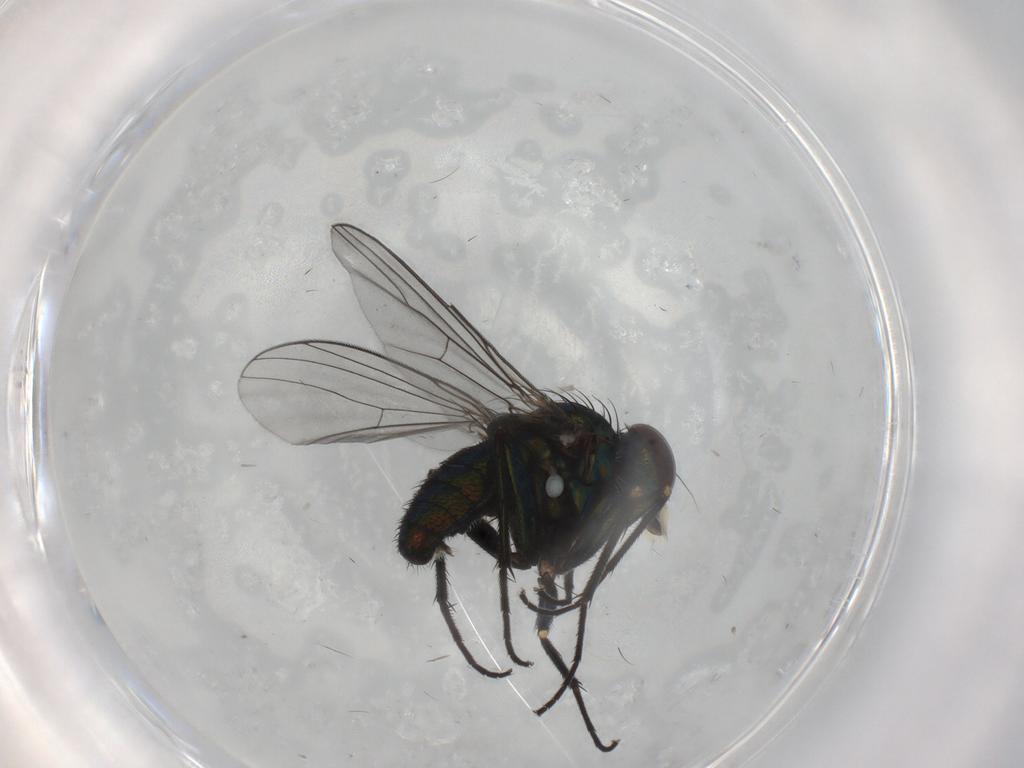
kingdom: Animalia
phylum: Arthropoda
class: Insecta
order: Diptera
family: Dolichopodidae
